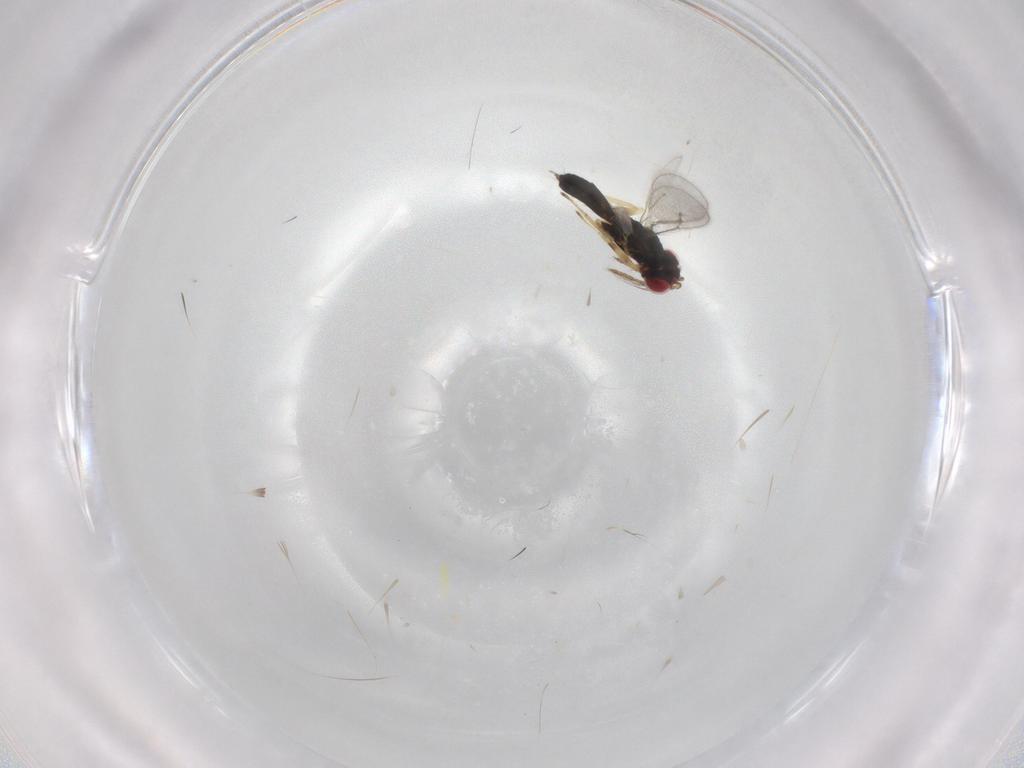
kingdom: Animalia
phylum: Arthropoda
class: Insecta
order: Hymenoptera
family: Eulophidae
